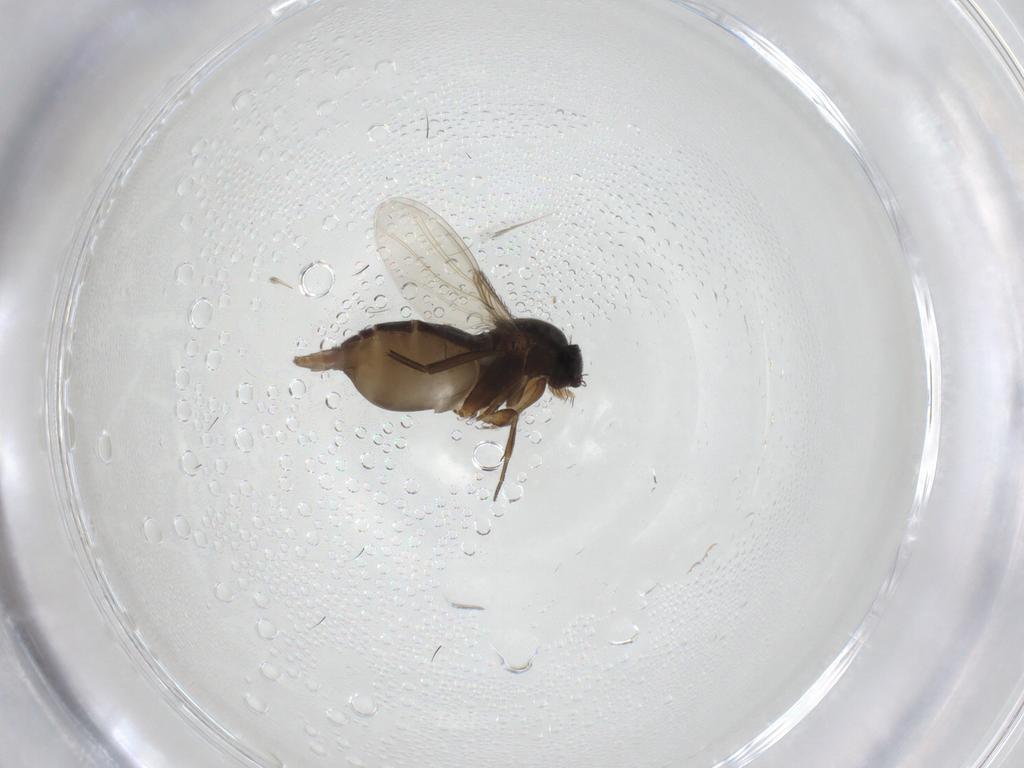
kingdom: Animalia
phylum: Arthropoda
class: Insecta
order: Diptera
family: Phoridae
